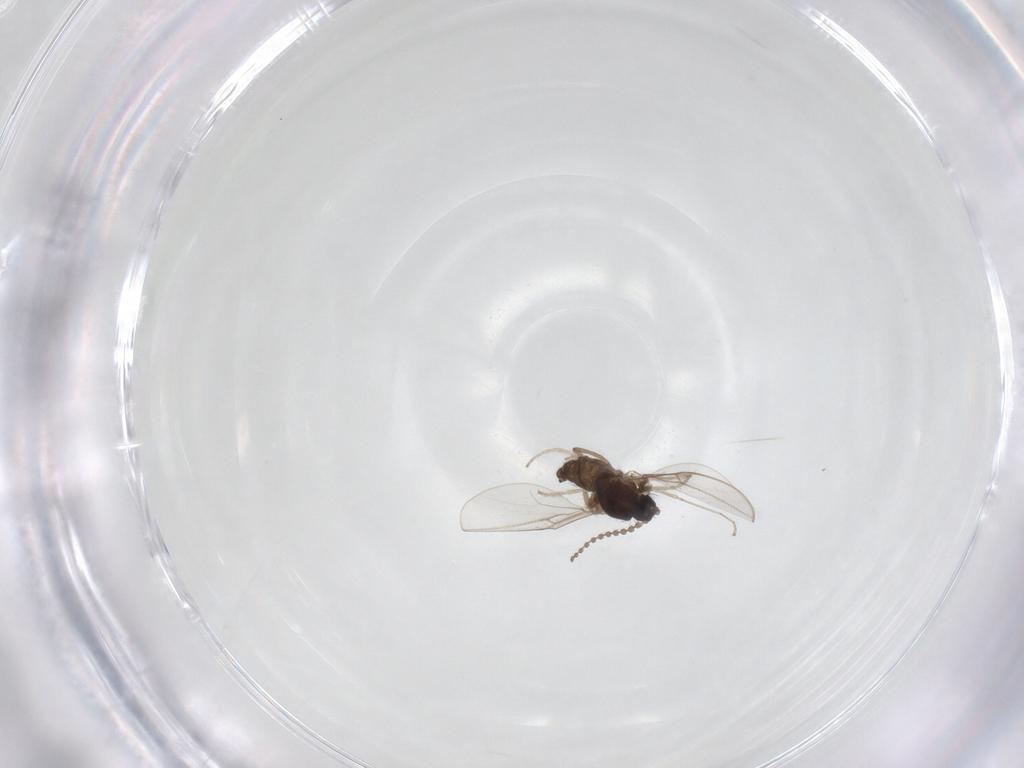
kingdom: Animalia
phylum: Arthropoda
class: Insecta
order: Diptera
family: Cecidomyiidae
